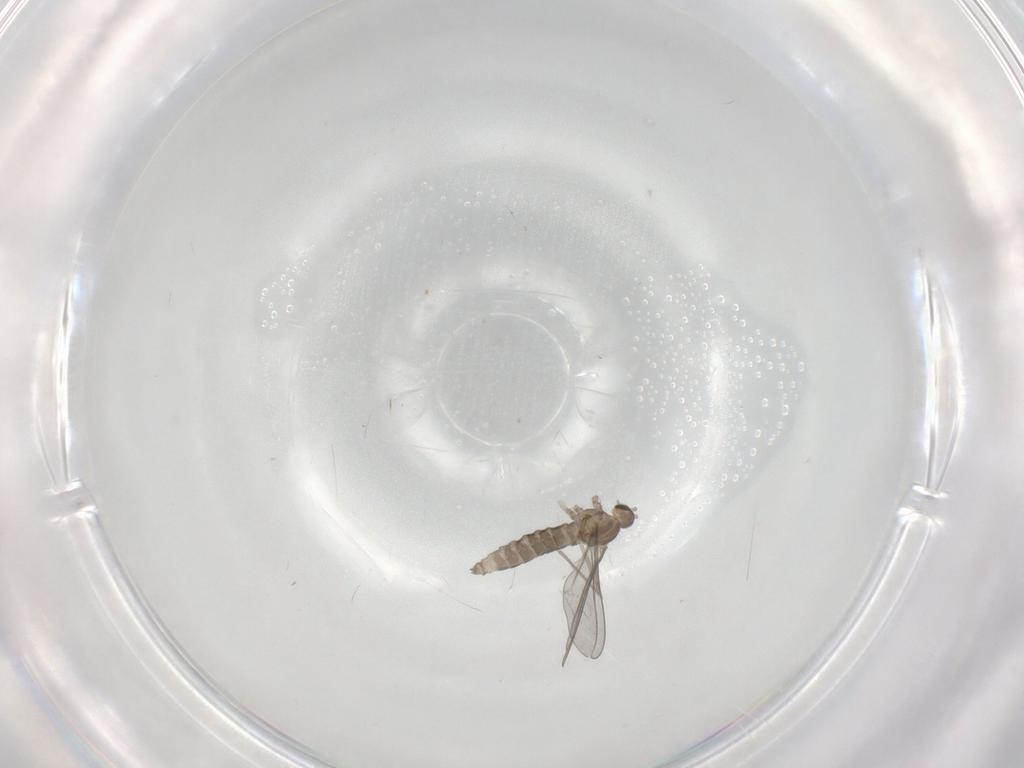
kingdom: Animalia
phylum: Arthropoda
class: Insecta
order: Diptera
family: Cecidomyiidae
